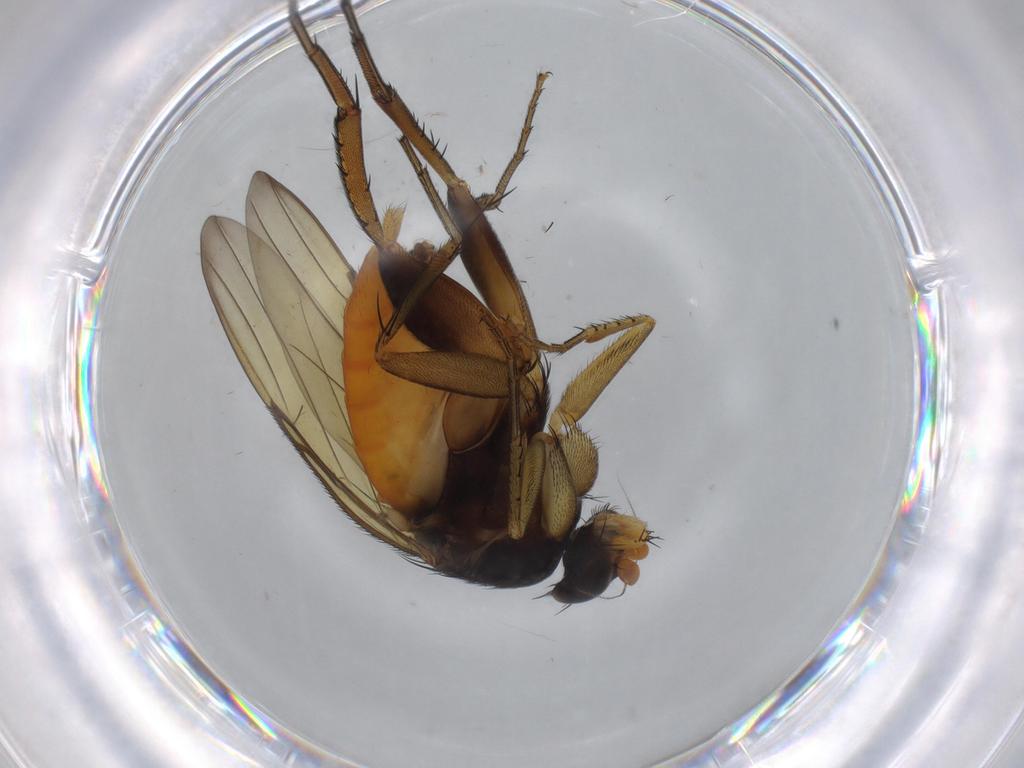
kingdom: Animalia
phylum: Arthropoda
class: Insecta
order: Diptera
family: Phoridae
